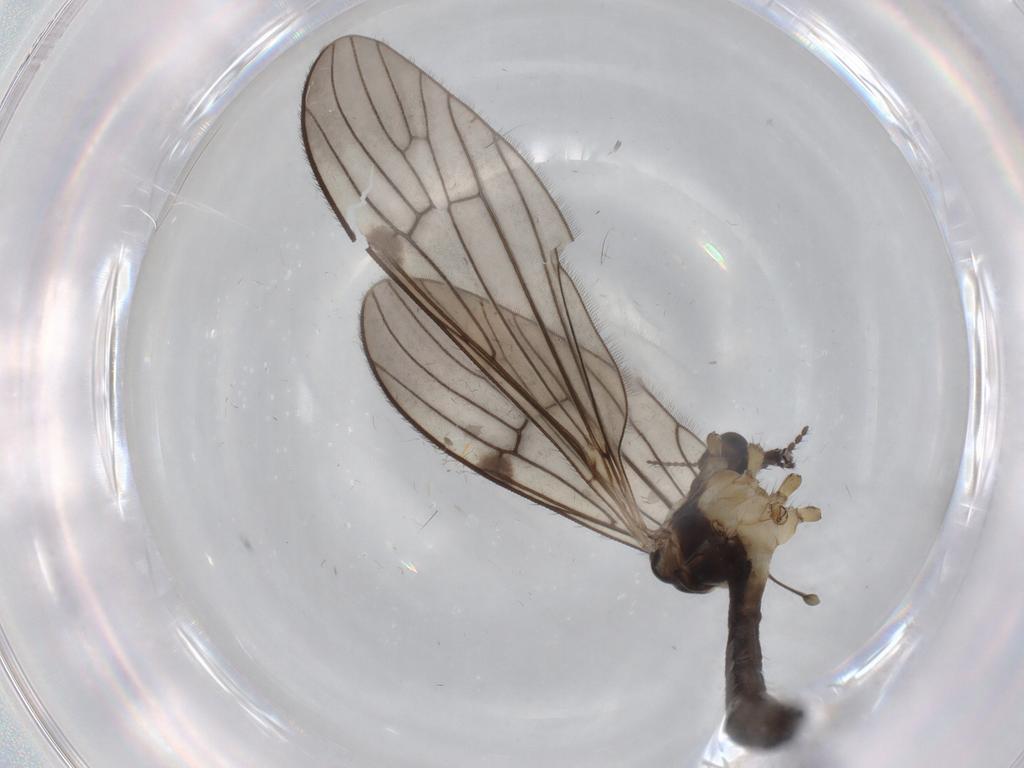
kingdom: Animalia
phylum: Arthropoda
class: Insecta
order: Diptera
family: Limoniidae
